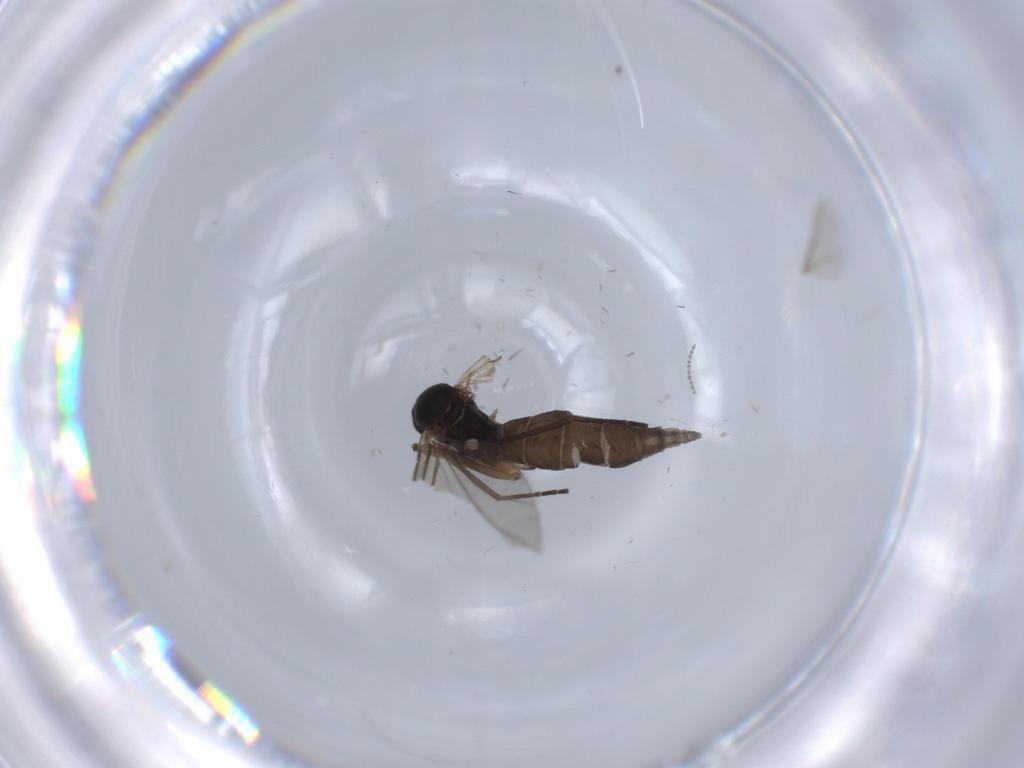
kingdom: Animalia
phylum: Arthropoda
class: Insecta
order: Diptera
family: Sciaridae
